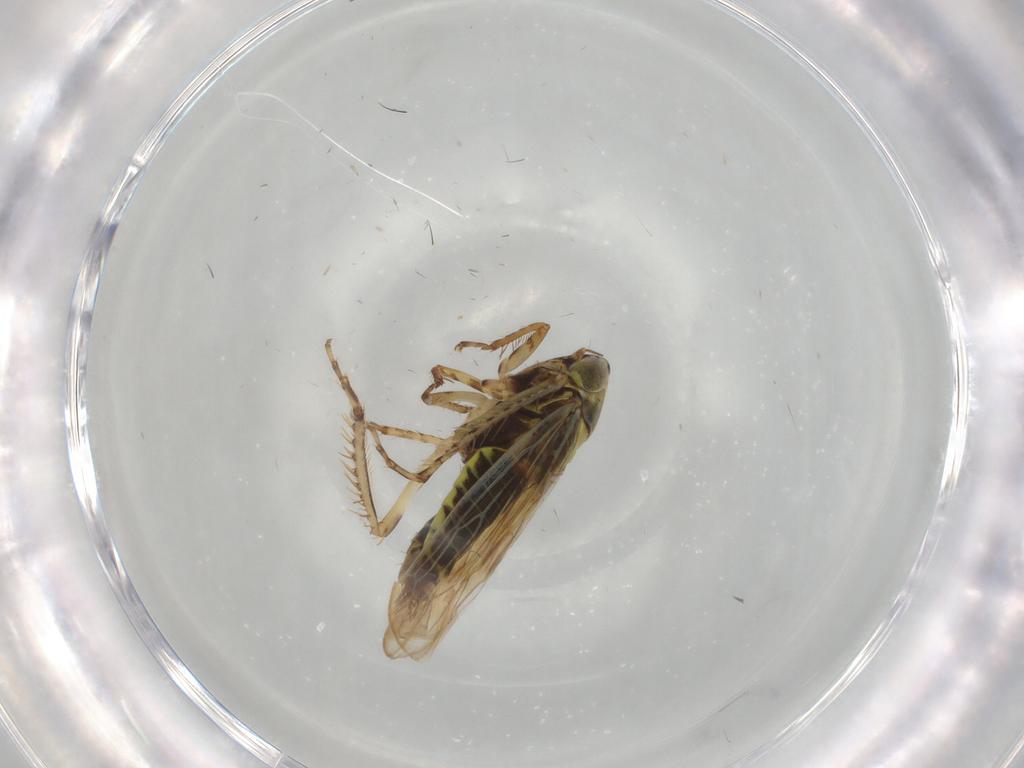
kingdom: Animalia
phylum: Arthropoda
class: Insecta
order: Hemiptera
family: Cicadellidae
